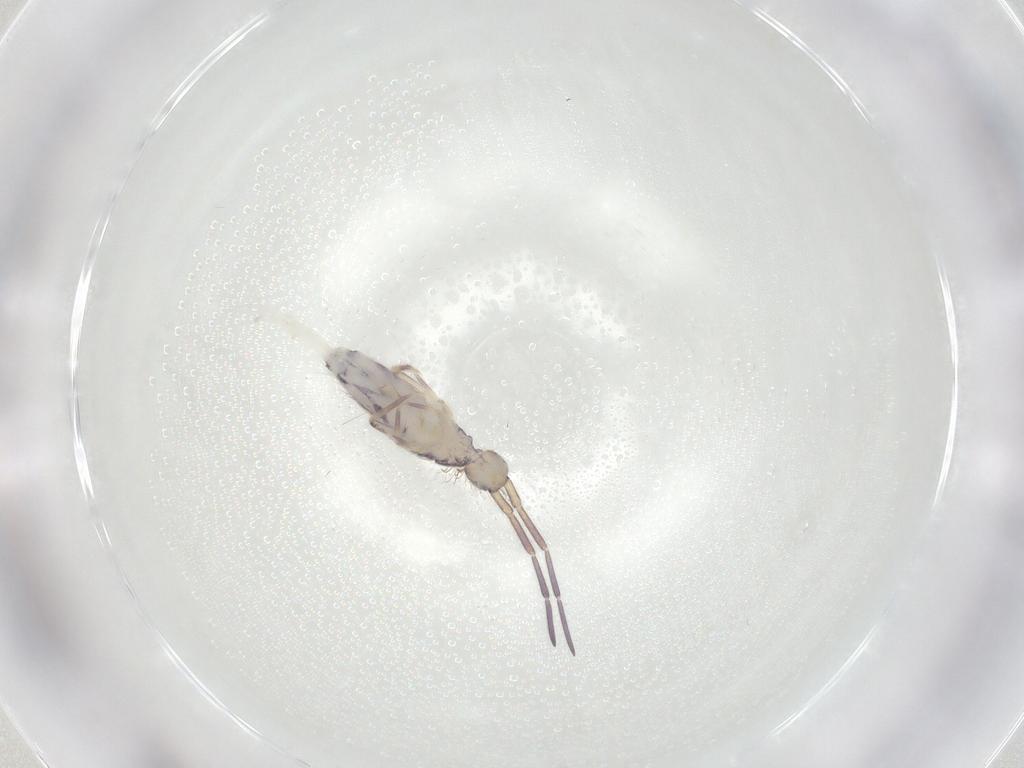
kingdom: Animalia
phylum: Arthropoda
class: Collembola
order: Entomobryomorpha
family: Entomobryidae
